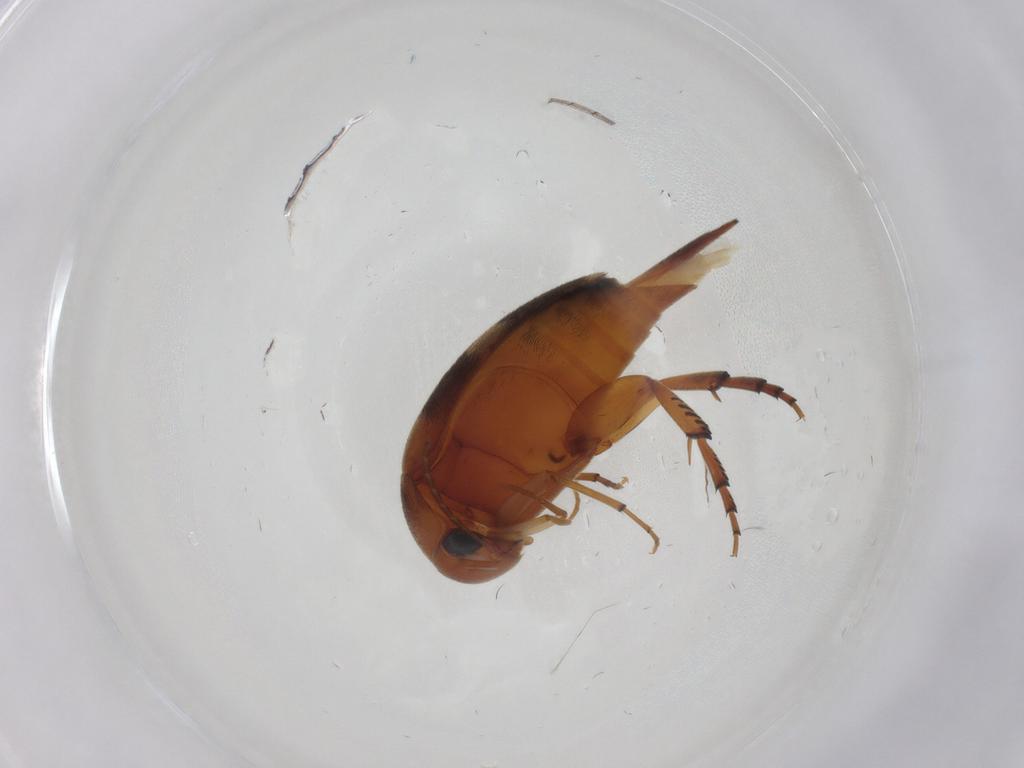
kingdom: Animalia
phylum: Arthropoda
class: Insecta
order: Coleoptera
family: Mordellidae
